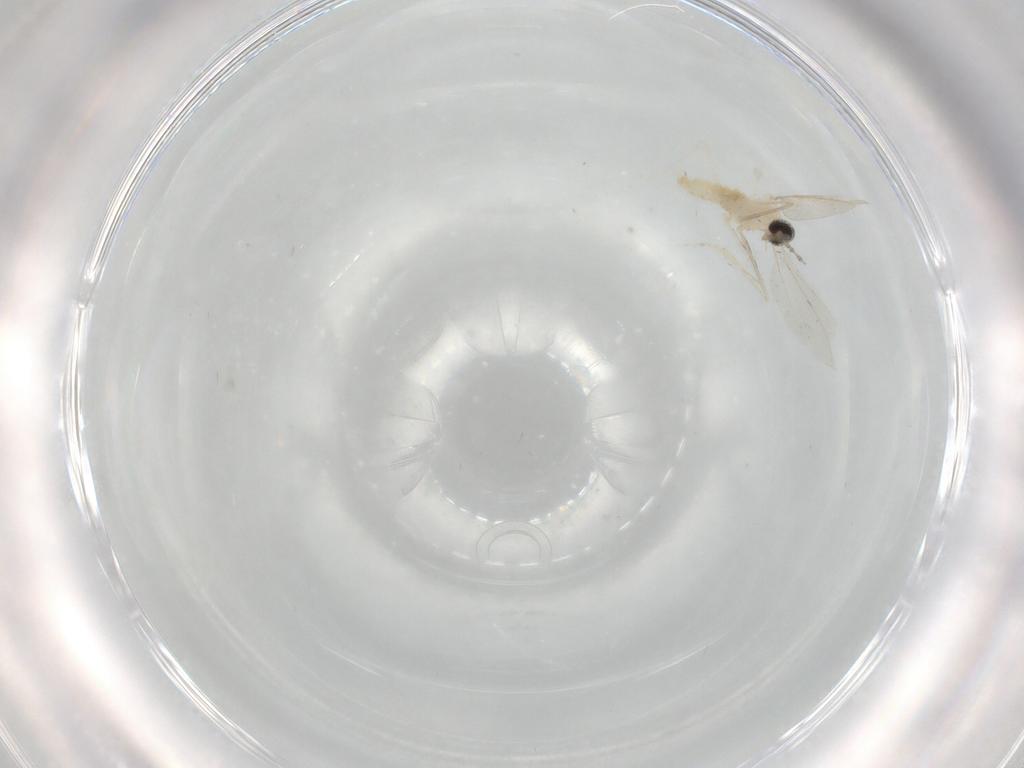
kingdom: Animalia
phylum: Arthropoda
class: Insecta
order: Diptera
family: Cecidomyiidae
